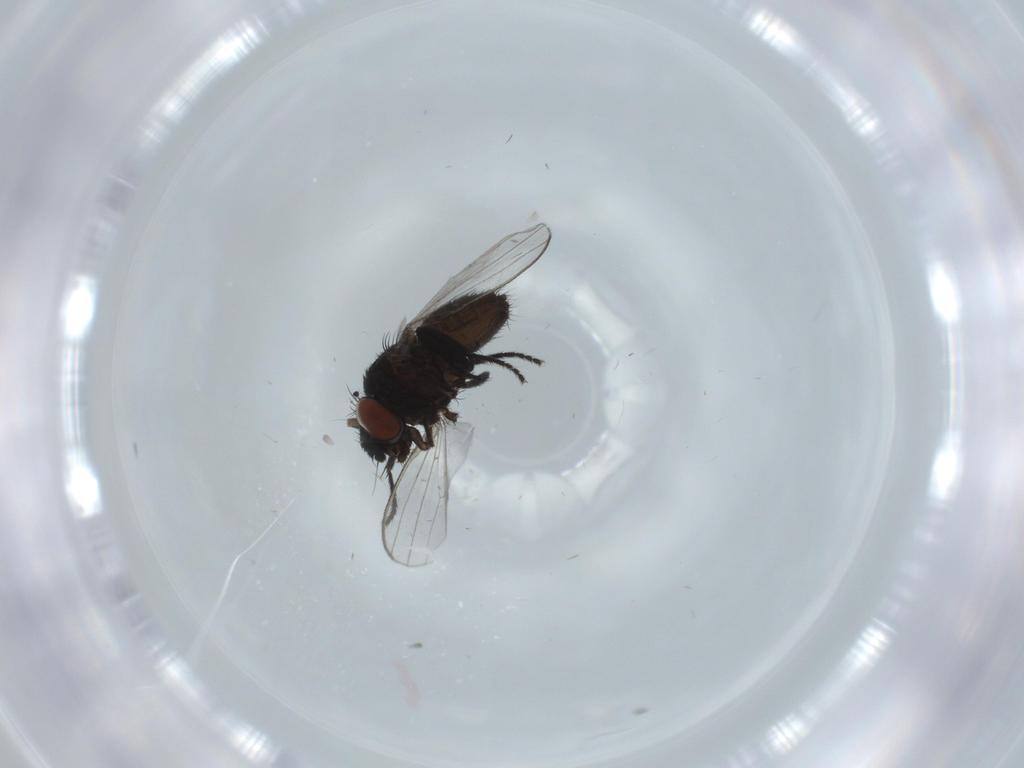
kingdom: Animalia
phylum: Arthropoda
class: Insecta
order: Diptera
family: Milichiidae
